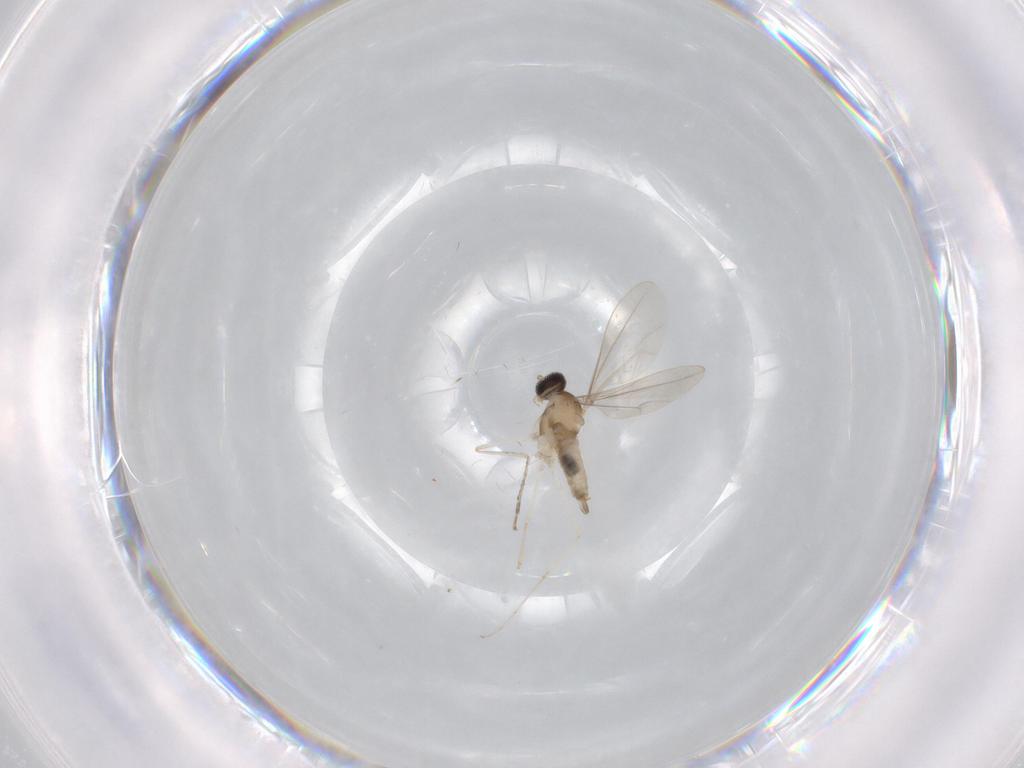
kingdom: Animalia
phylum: Arthropoda
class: Insecta
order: Diptera
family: Cecidomyiidae
